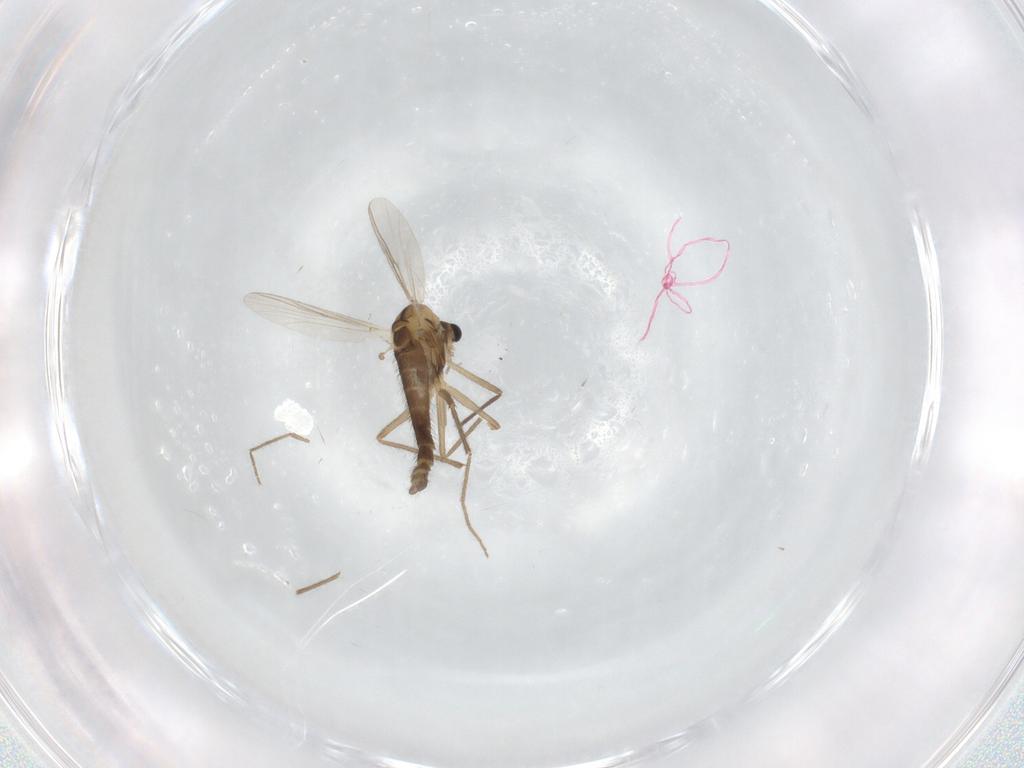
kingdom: Animalia
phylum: Arthropoda
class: Insecta
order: Diptera
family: Chironomidae
